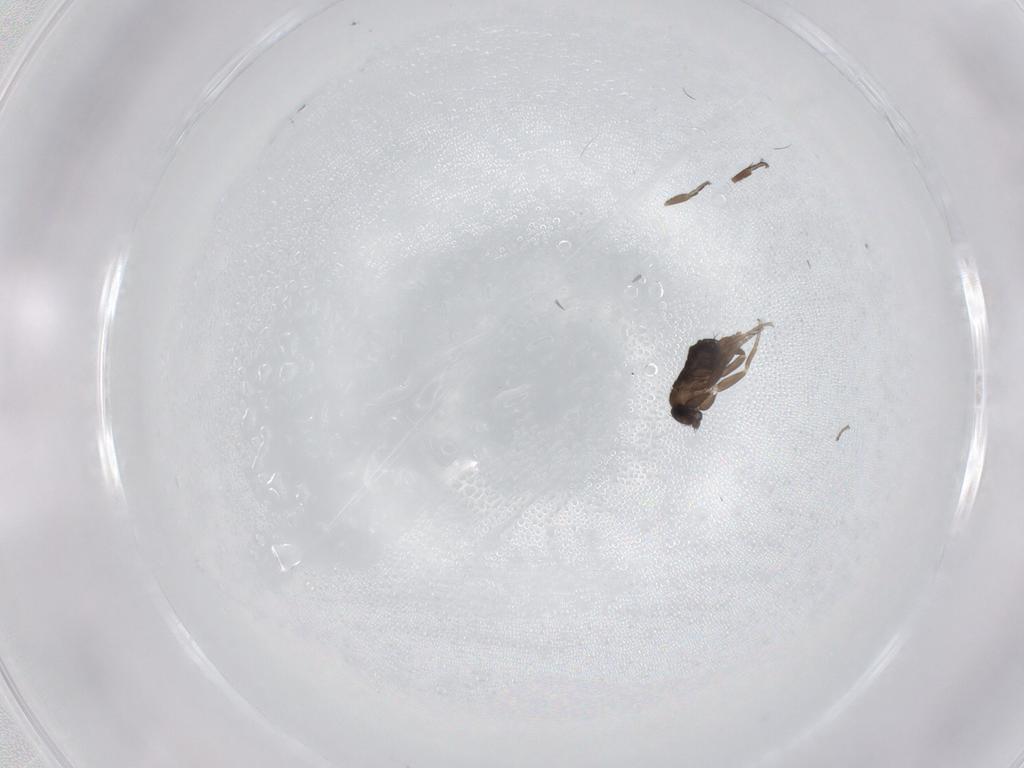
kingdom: Animalia
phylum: Arthropoda
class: Insecta
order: Diptera
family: Phoridae
